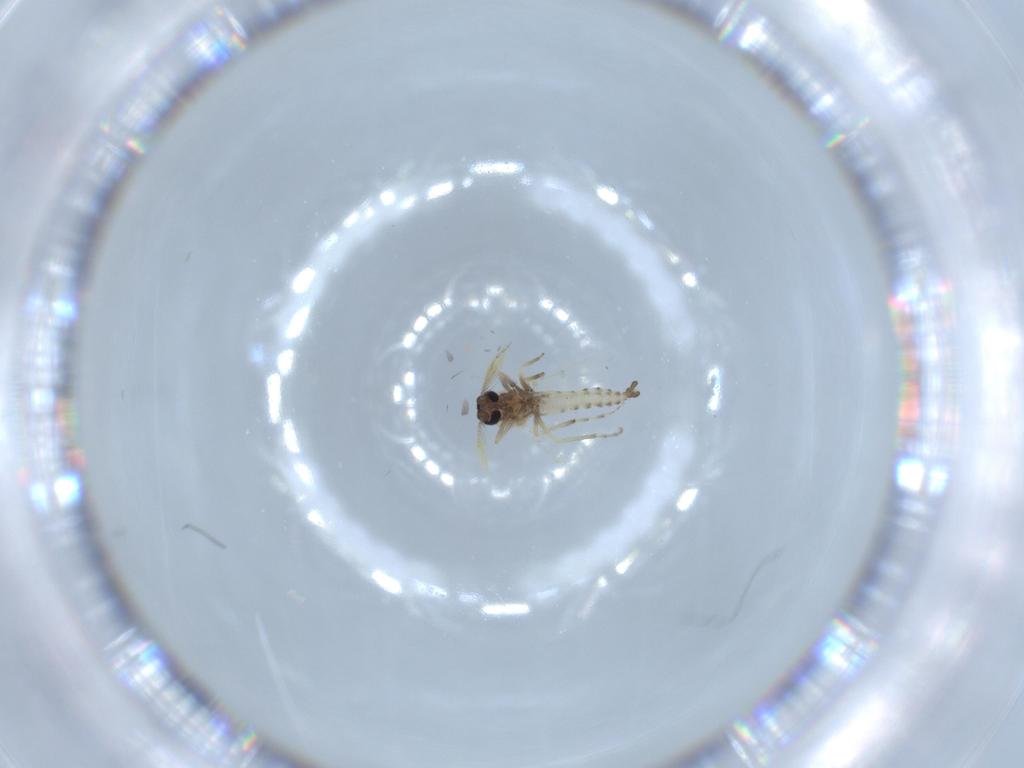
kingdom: Animalia
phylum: Arthropoda
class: Insecta
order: Diptera
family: Ceratopogonidae
